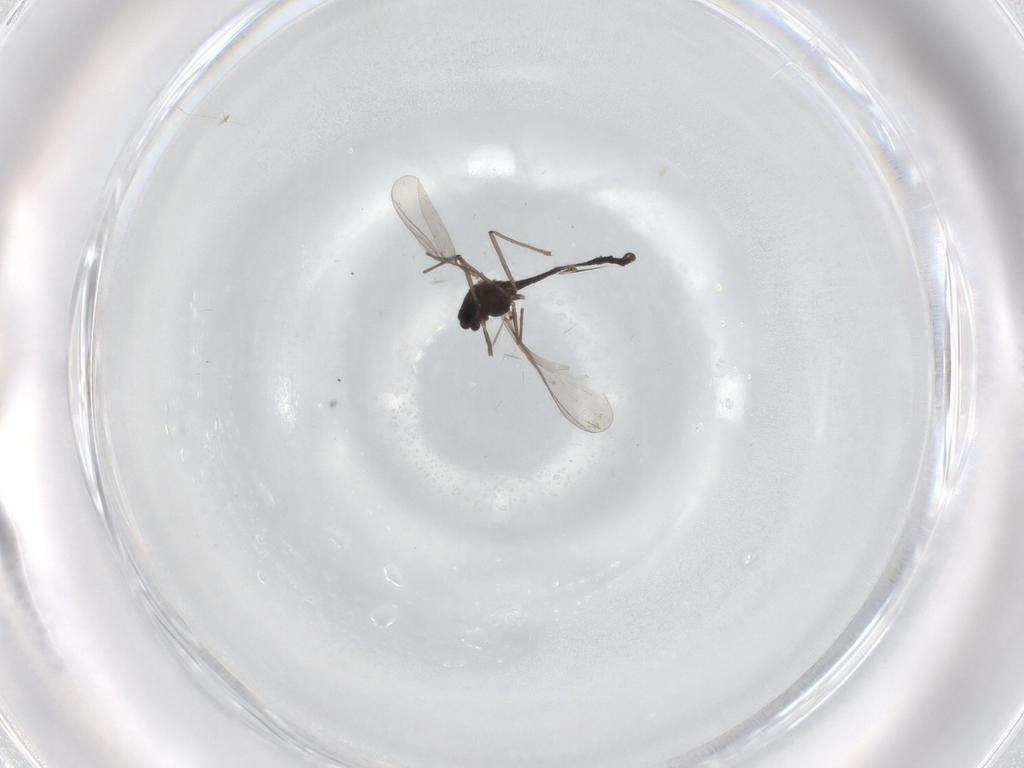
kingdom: Animalia
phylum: Arthropoda
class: Insecta
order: Diptera
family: Chironomidae
